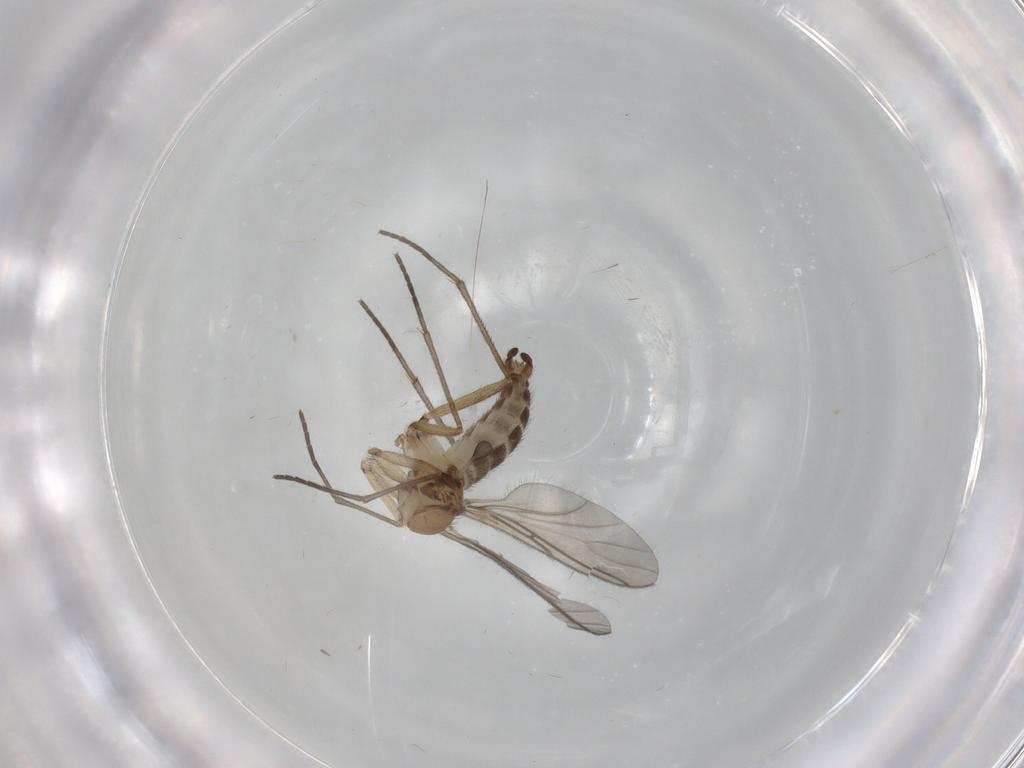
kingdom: Animalia
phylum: Arthropoda
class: Insecta
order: Diptera
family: Sciaridae
